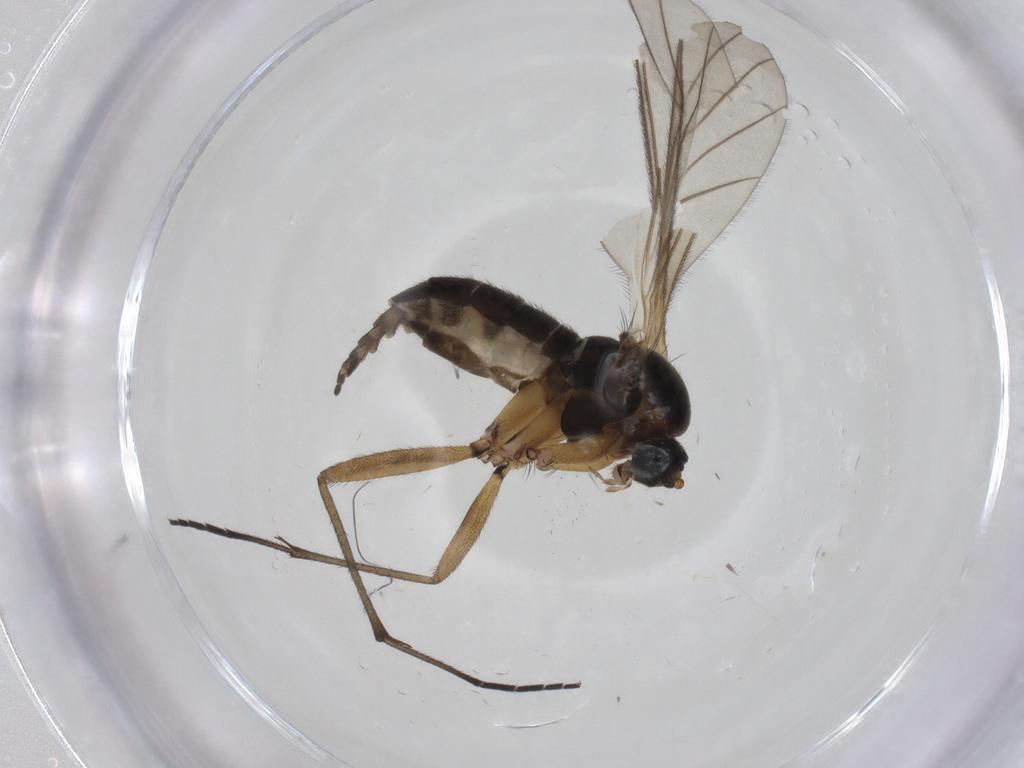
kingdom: Animalia
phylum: Arthropoda
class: Insecta
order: Diptera
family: Sciaridae
